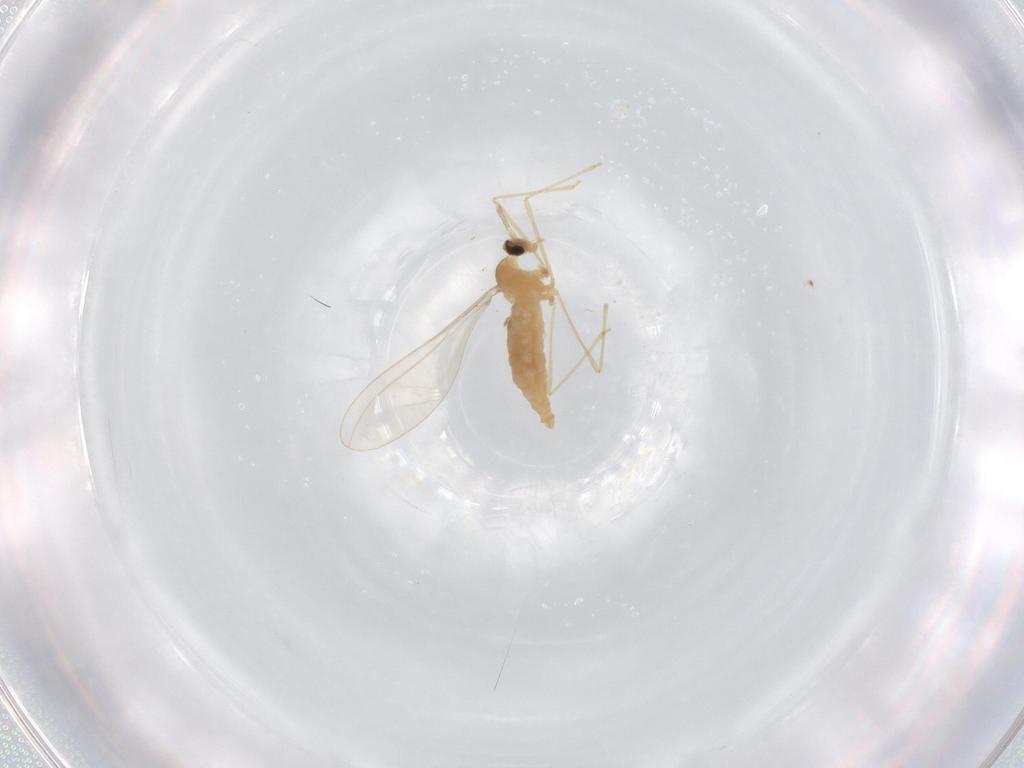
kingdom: Animalia
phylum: Arthropoda
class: Insecta
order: Diptera
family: Cecidomyiidae
